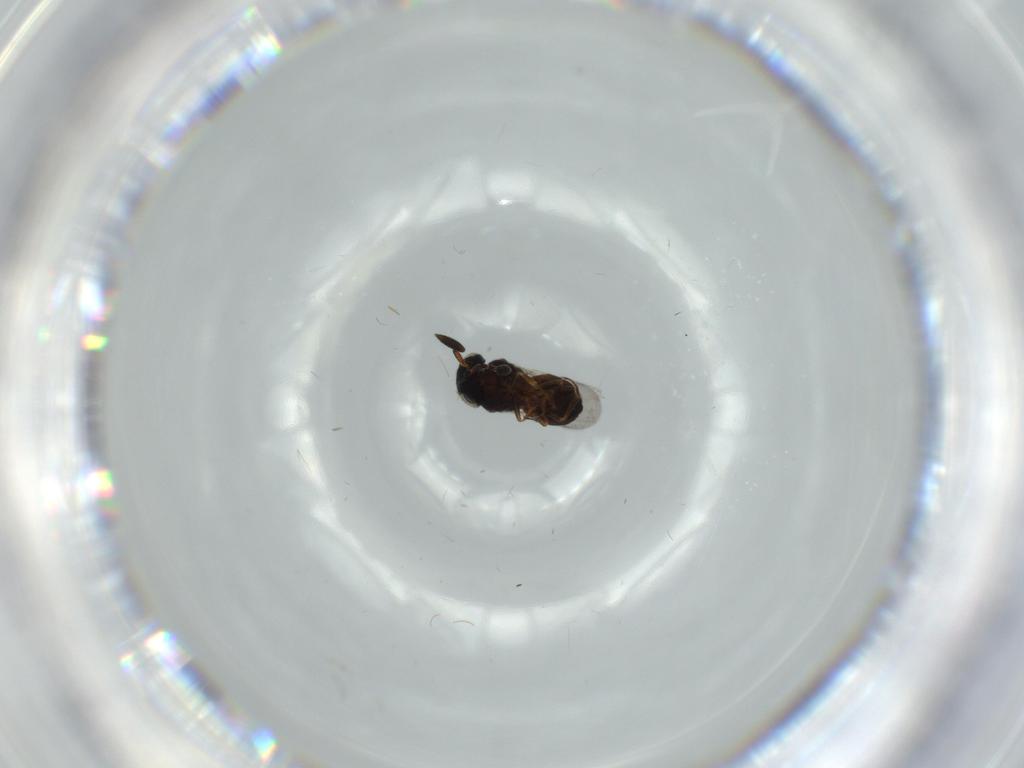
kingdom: Animalia
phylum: Arthropoda
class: Insecta
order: Hymenoptera
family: Scelionidae
